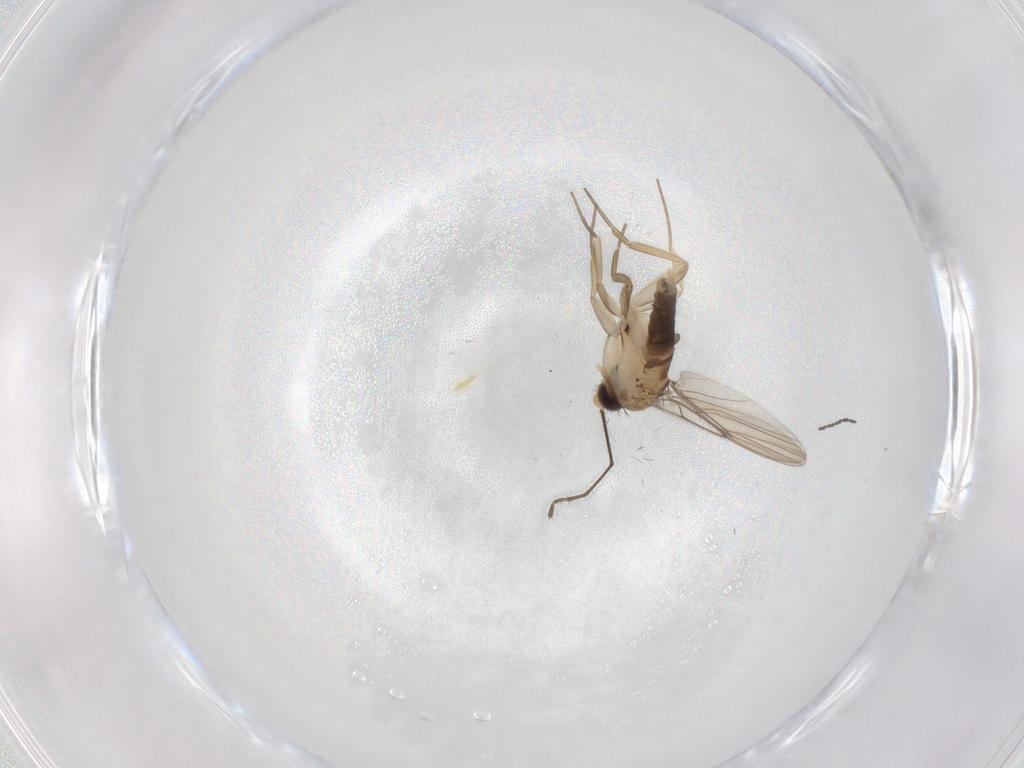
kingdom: Animalia
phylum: Arthropoda
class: Insecta
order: Diptera
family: Phoridae
